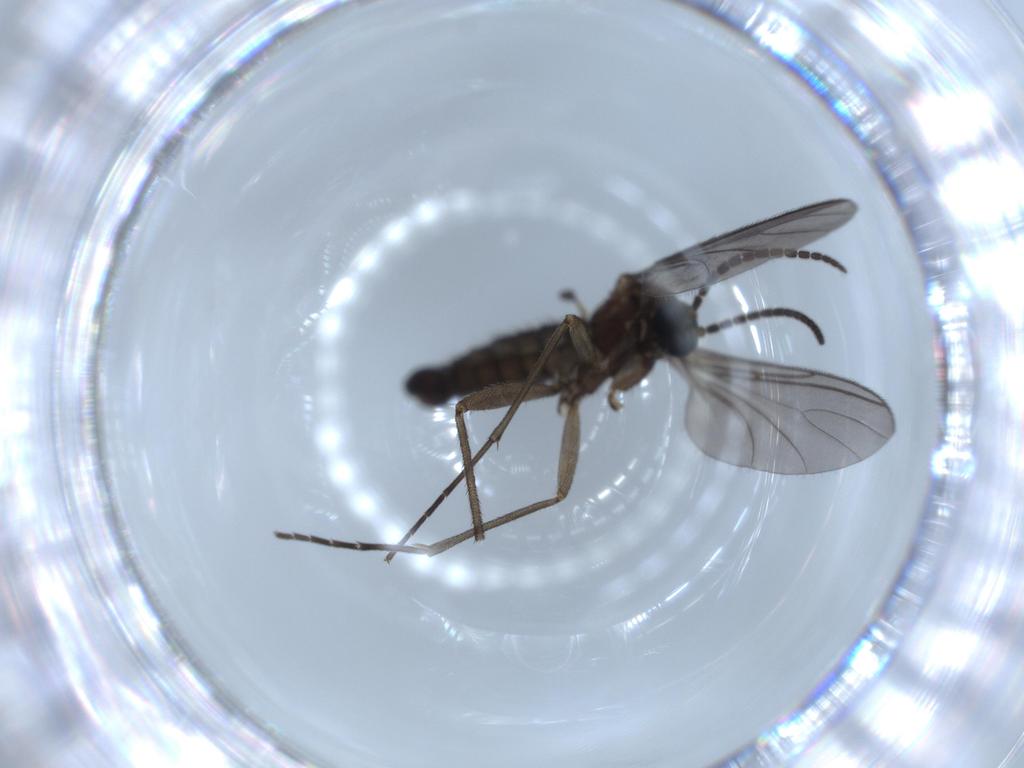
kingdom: Animalia
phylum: Arthropoda
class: Insecta
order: Diptera
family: Sciaridae
